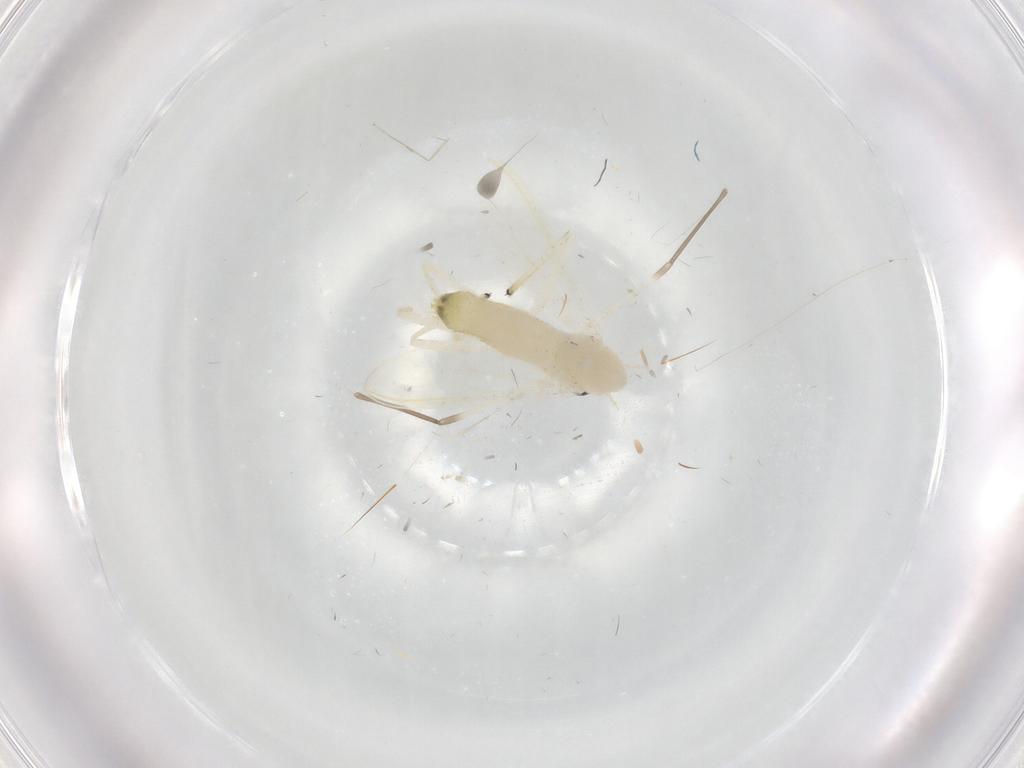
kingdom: Animalia
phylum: Arthropoda
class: Insecta
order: Diptera
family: Chironomidae
